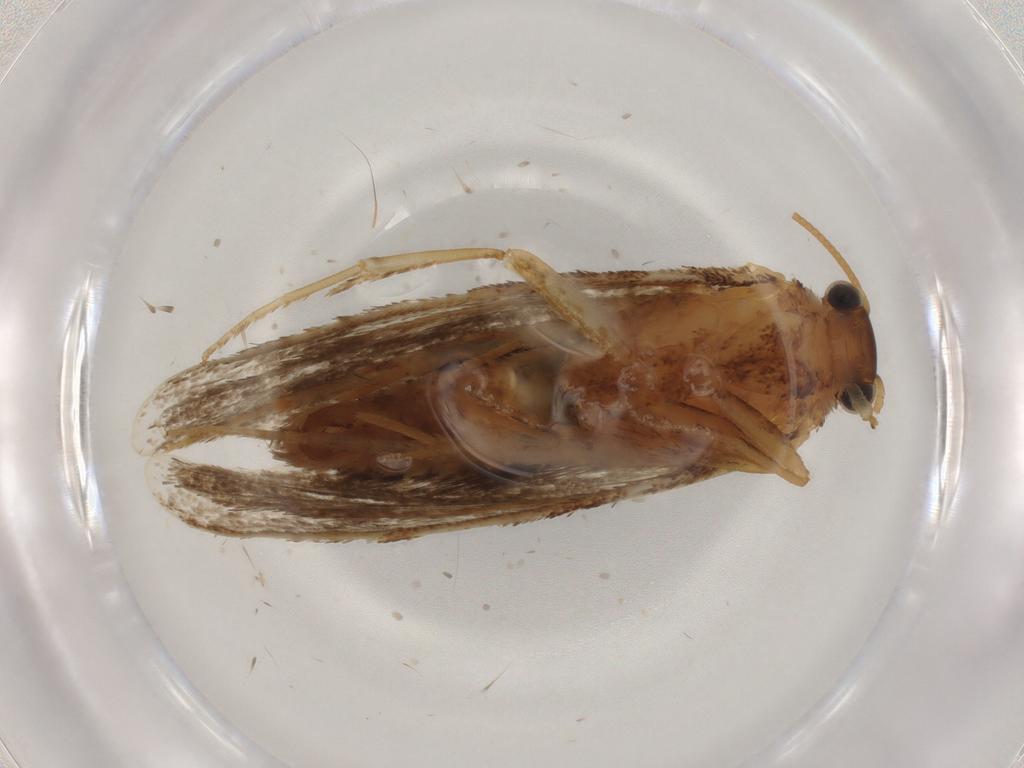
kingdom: Animalia
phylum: Arthropoda
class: Insecta
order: Lepidoptera
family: Nepticulidae
